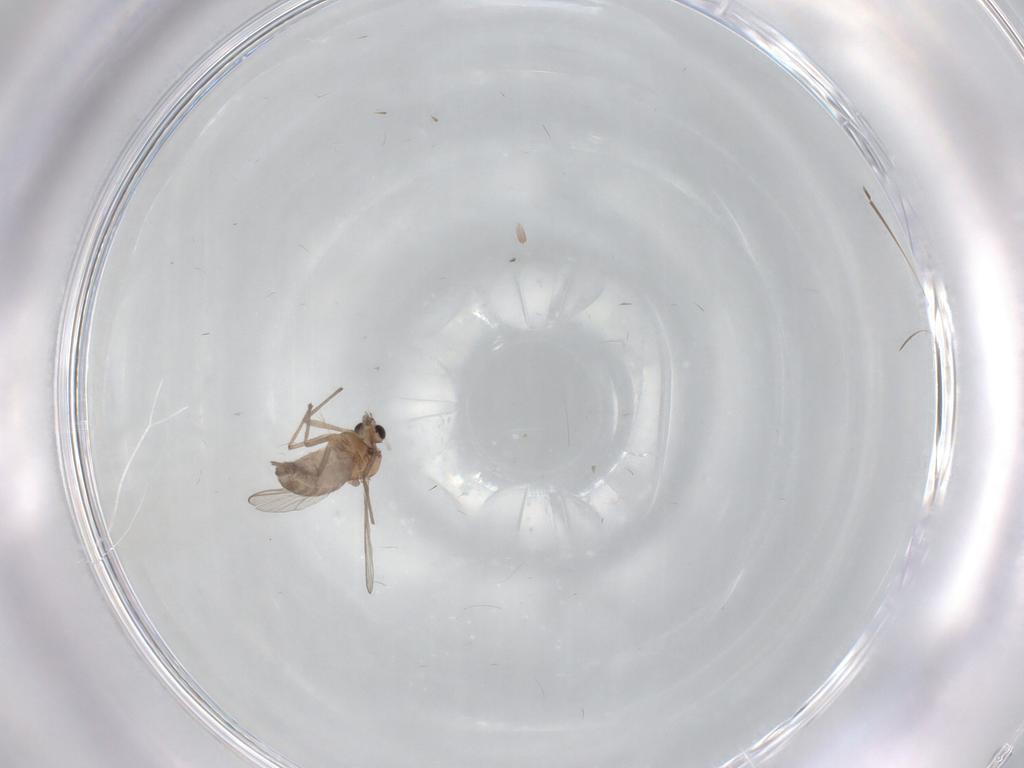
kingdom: Animalia
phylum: Arthropoda
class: Insecta
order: Diptera
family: Chironomidae
